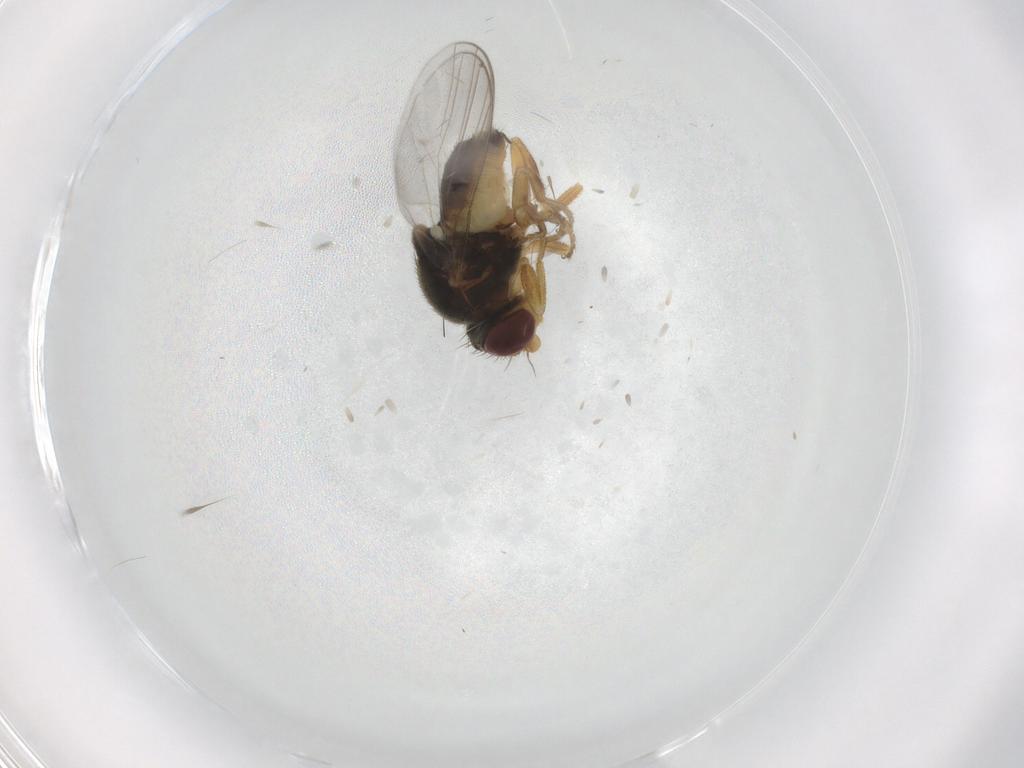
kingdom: Animalia
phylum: Arthropoda
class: Insecta
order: Diptera
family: Chloropidae
